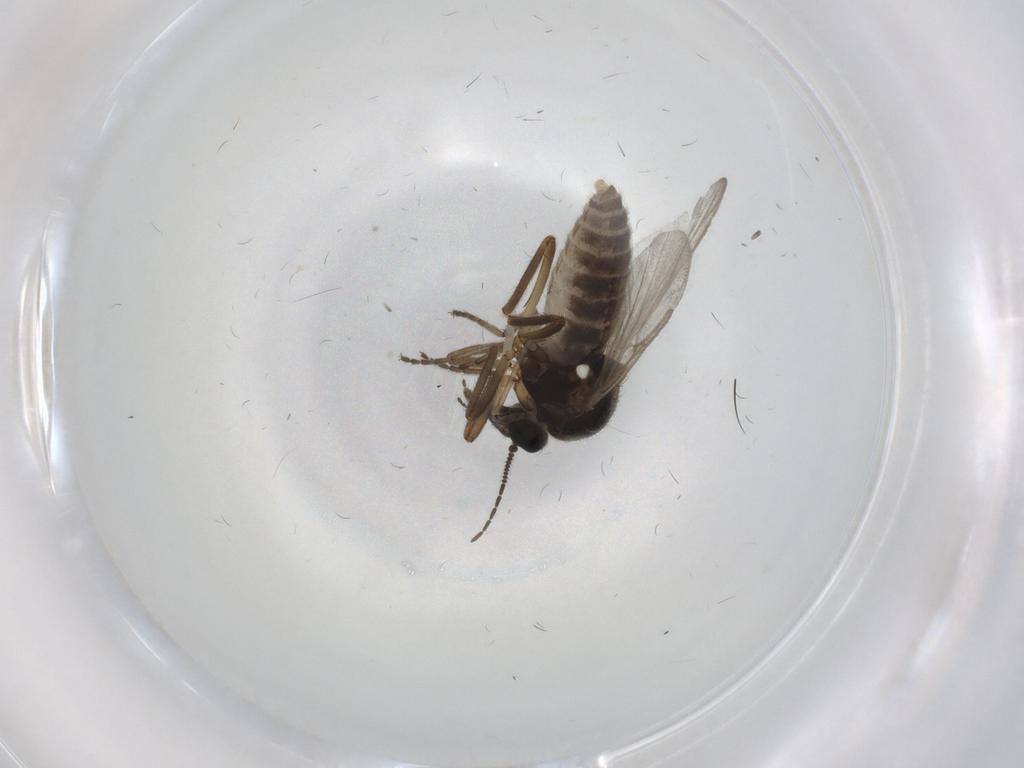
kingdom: Animalia
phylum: Arthropoda
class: Insecta
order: Diptera
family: Ceratopogonidae
